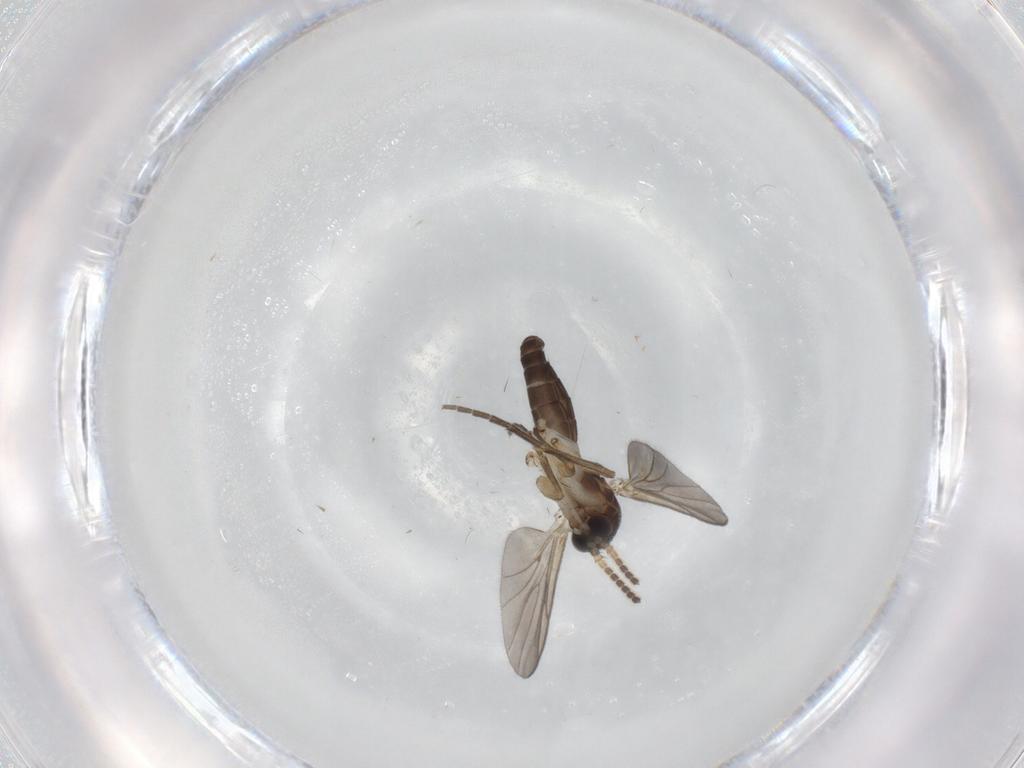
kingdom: Animalia
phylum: Arthropoda
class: Insecta
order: Diptera
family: Mycetophilidae
